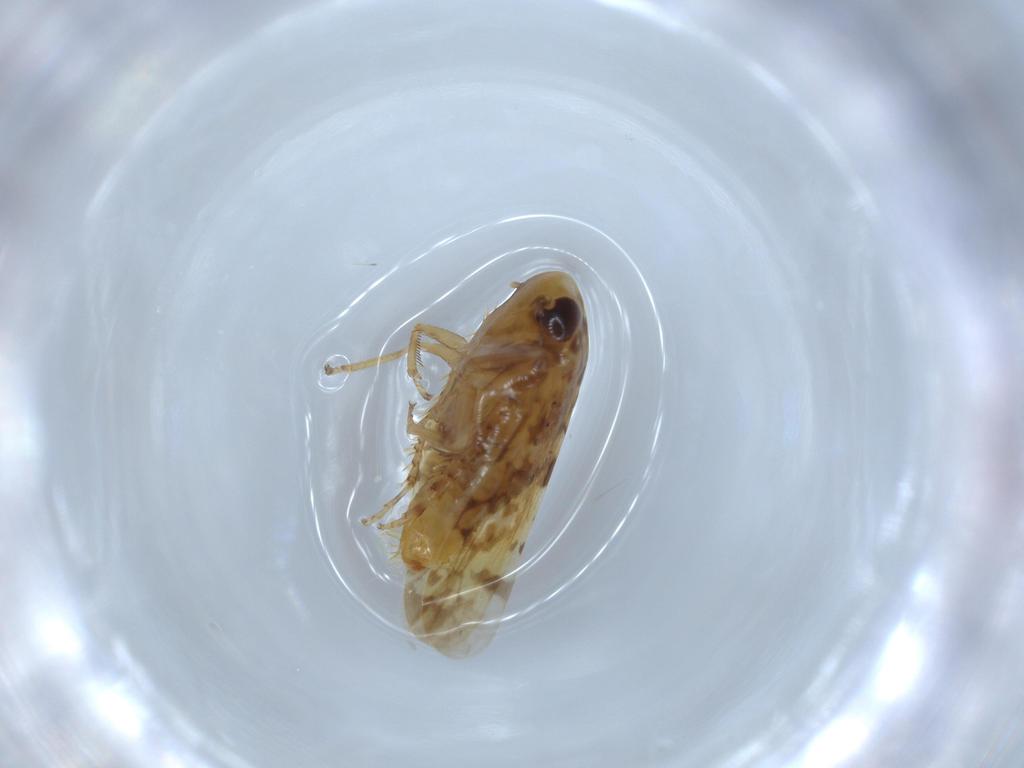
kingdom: Animalia
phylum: Arthropoda
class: Insecta
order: Hemiptera
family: Cicadellidae
